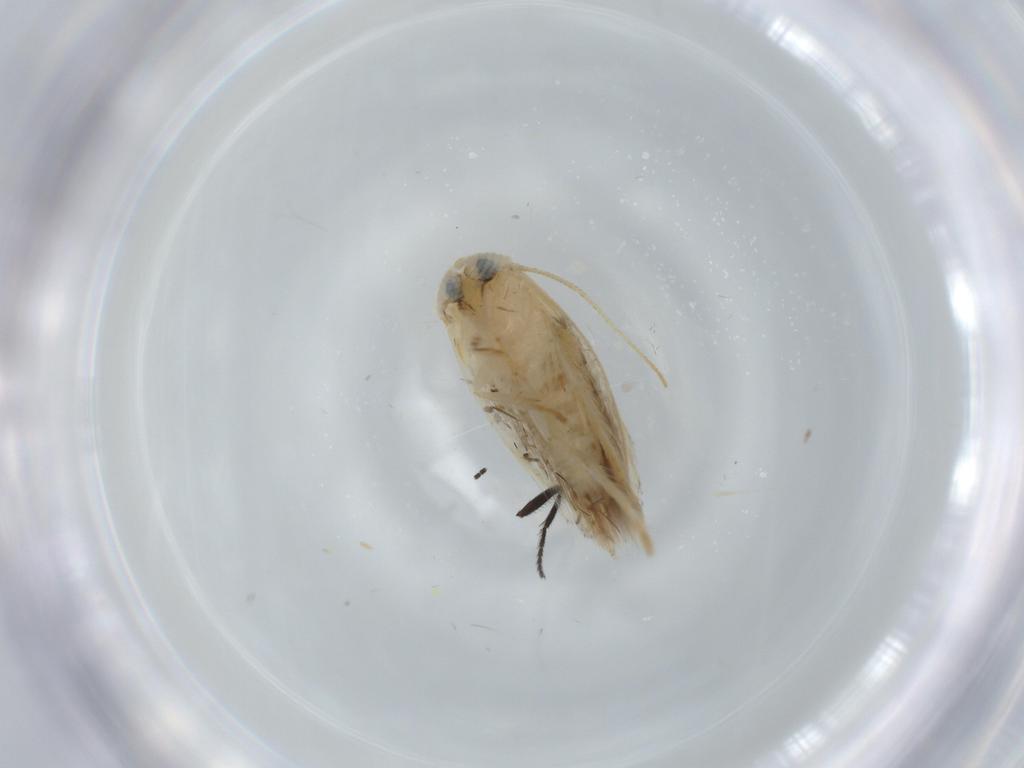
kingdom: Animalia
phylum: Arthropoda
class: Insecta
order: Lepidoptera
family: Opostegidae
